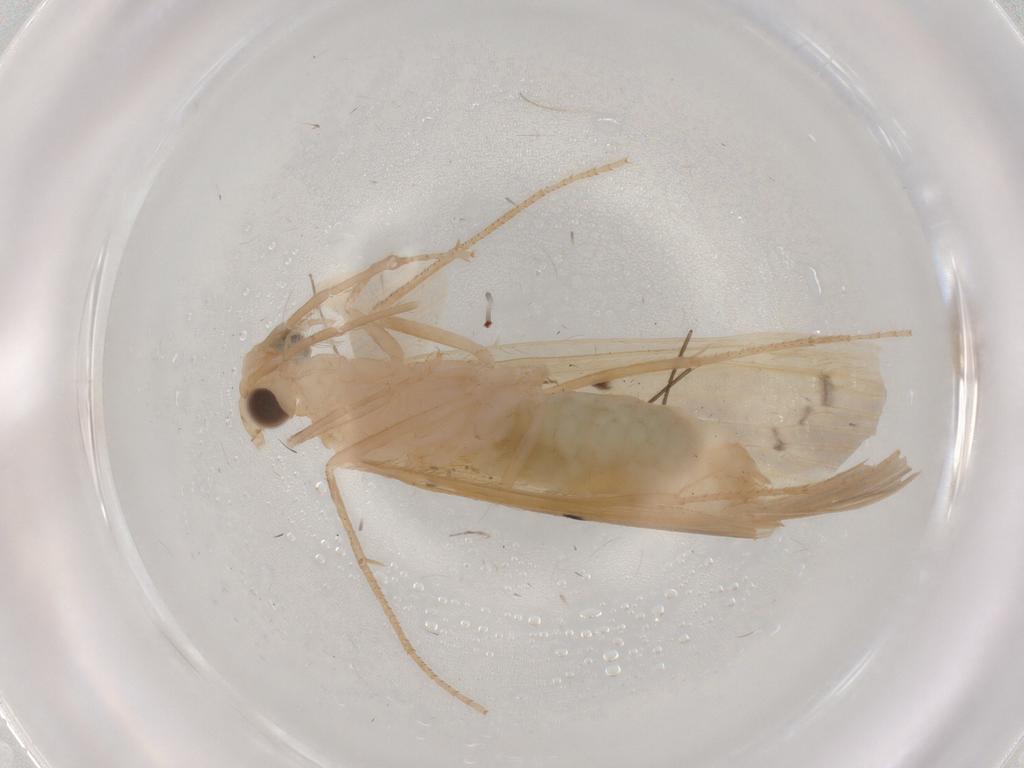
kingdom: Animalia
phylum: Arthropoda
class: Insecta
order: Trichoptera
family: Leptoceridae
